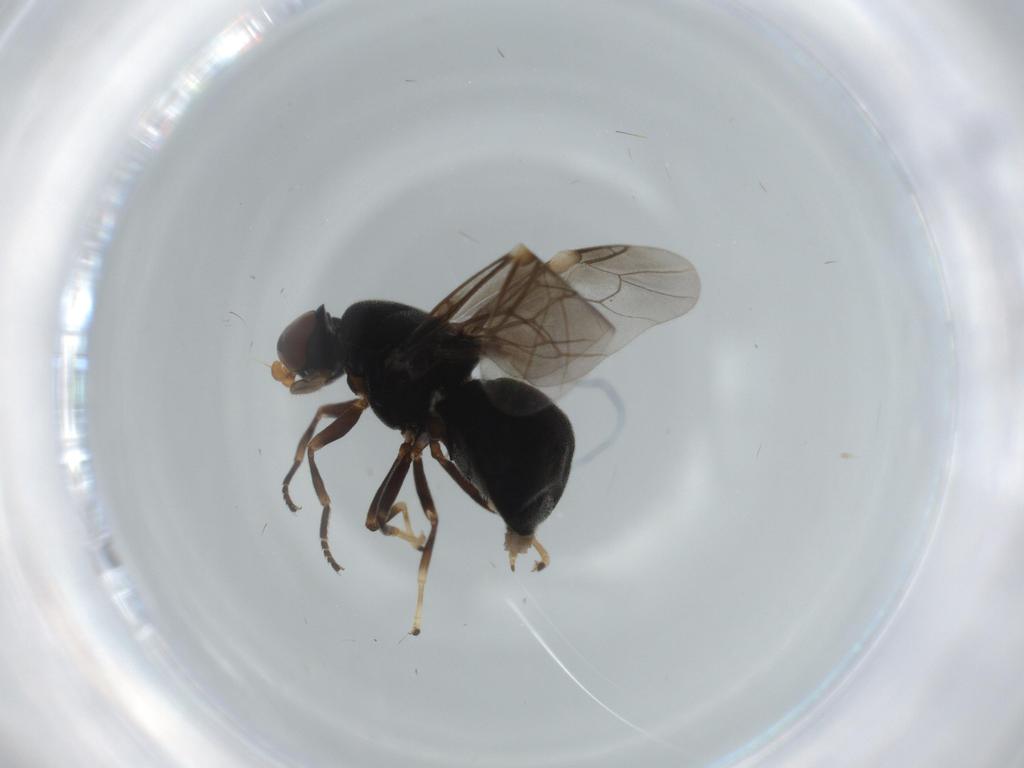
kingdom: Animalia
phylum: Arthropoda
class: Insecta
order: Diptera
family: Stratiomyidae
